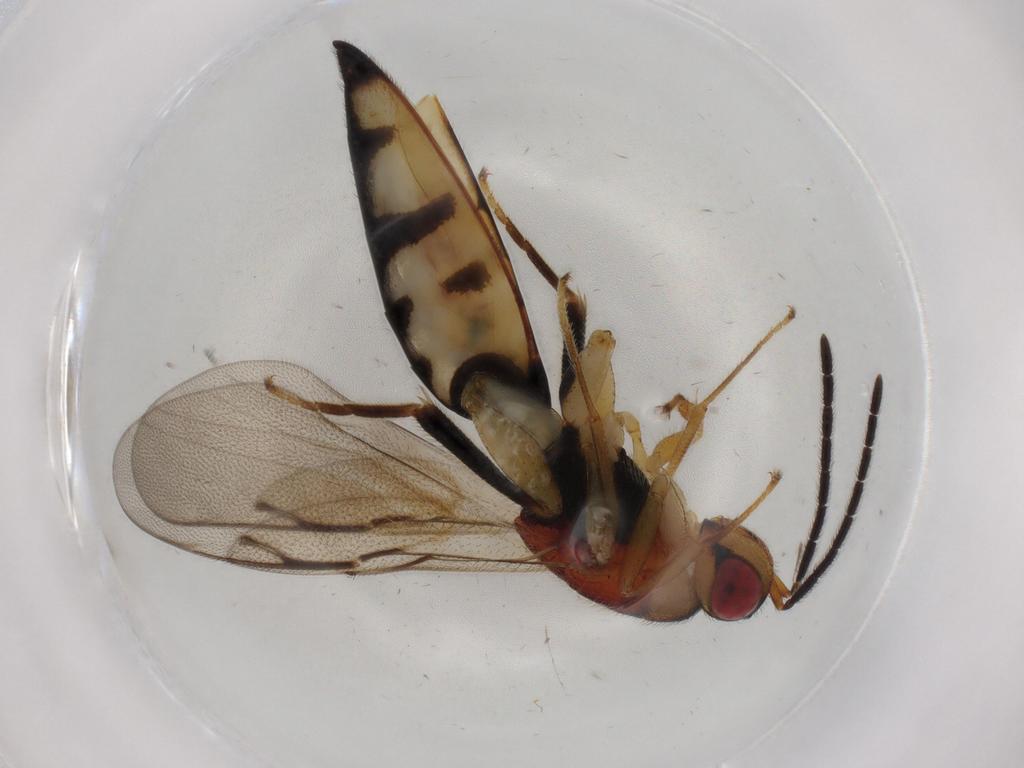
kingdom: Animalia
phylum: Arthropoda
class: Insecta
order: Hymenoptera
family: Eurytomidae
